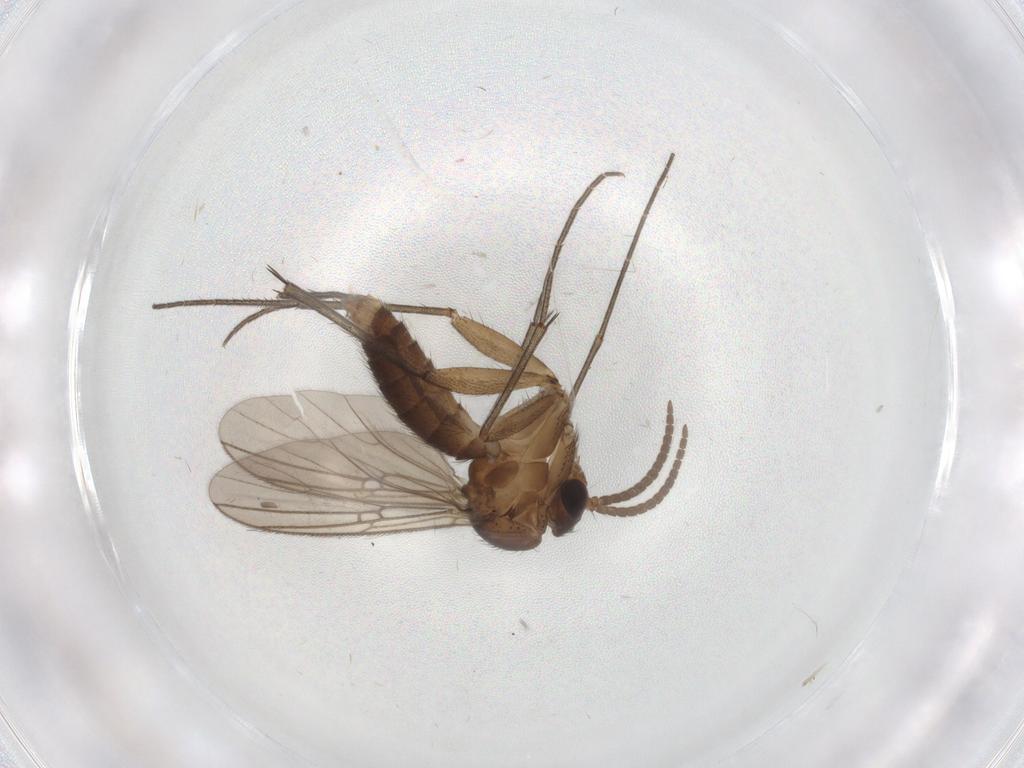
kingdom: Animalia
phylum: Arthropoda
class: Insecta
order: Diptera
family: Mycetophilidae
